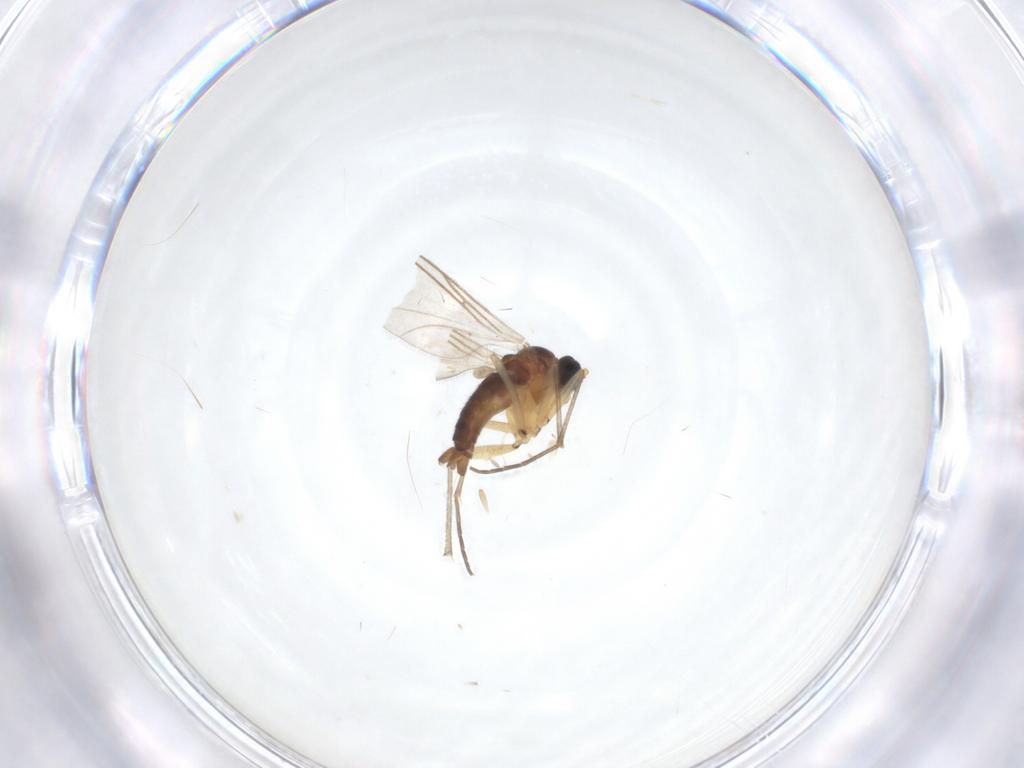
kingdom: Animalia
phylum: Arthropoda
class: Insecta
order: Diptera
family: Sciaridae
